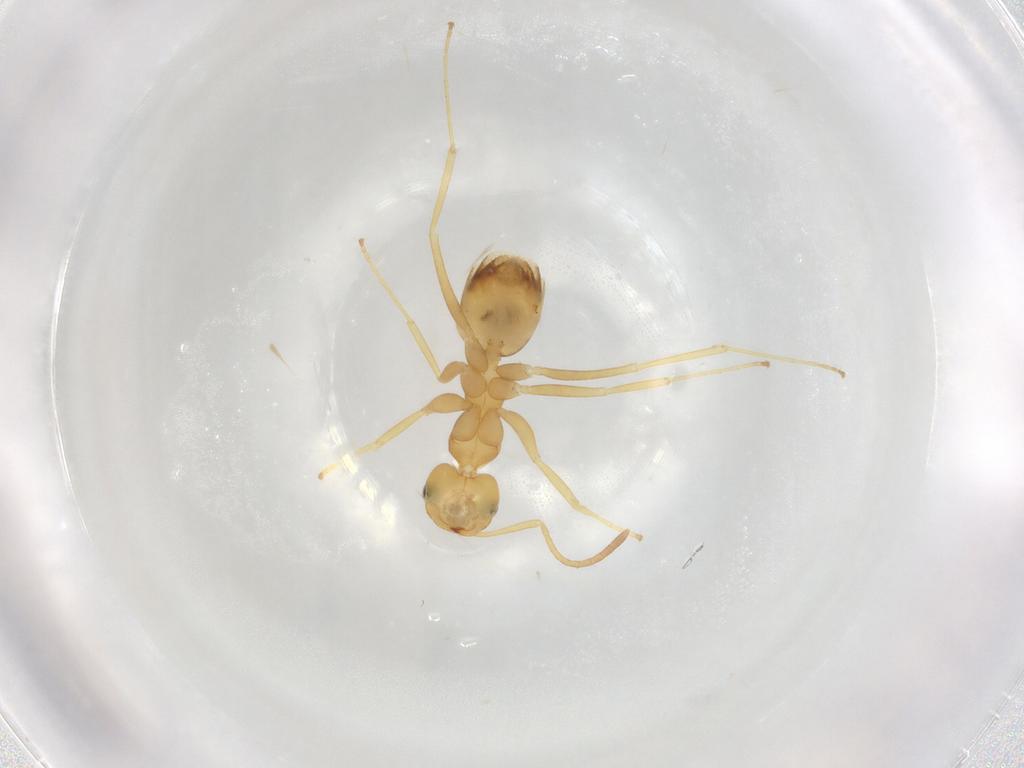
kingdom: Animalia
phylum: Arthropoda
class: Insecta
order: Hymenoptera
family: Formicidae
